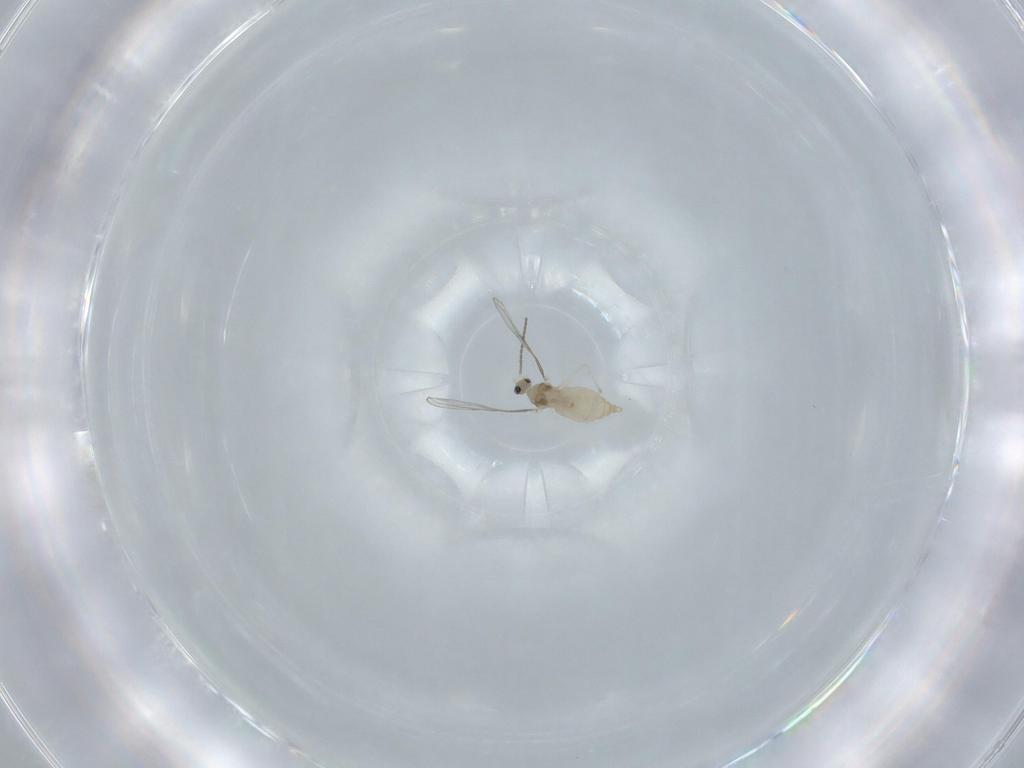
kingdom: Animalia
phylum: Arthropoda
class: Insecta
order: Diptera
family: Cecidomyiidae
